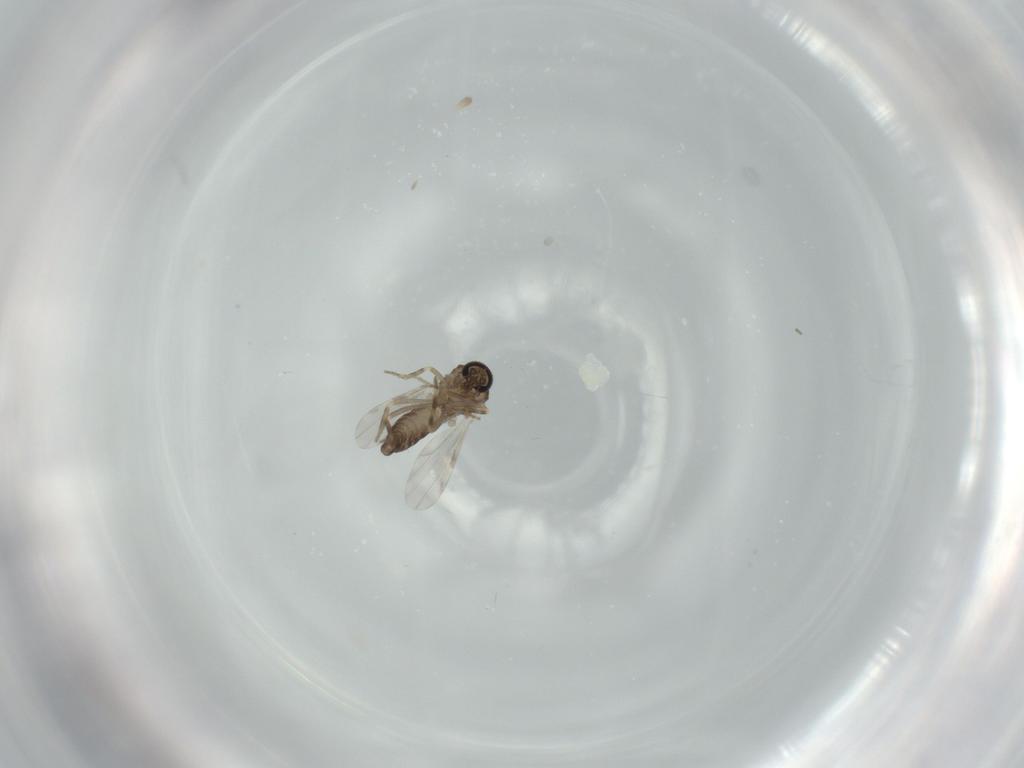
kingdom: Animalia
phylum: Arthropoda
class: Insecta
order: Diptera
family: Ceratopogonidae
